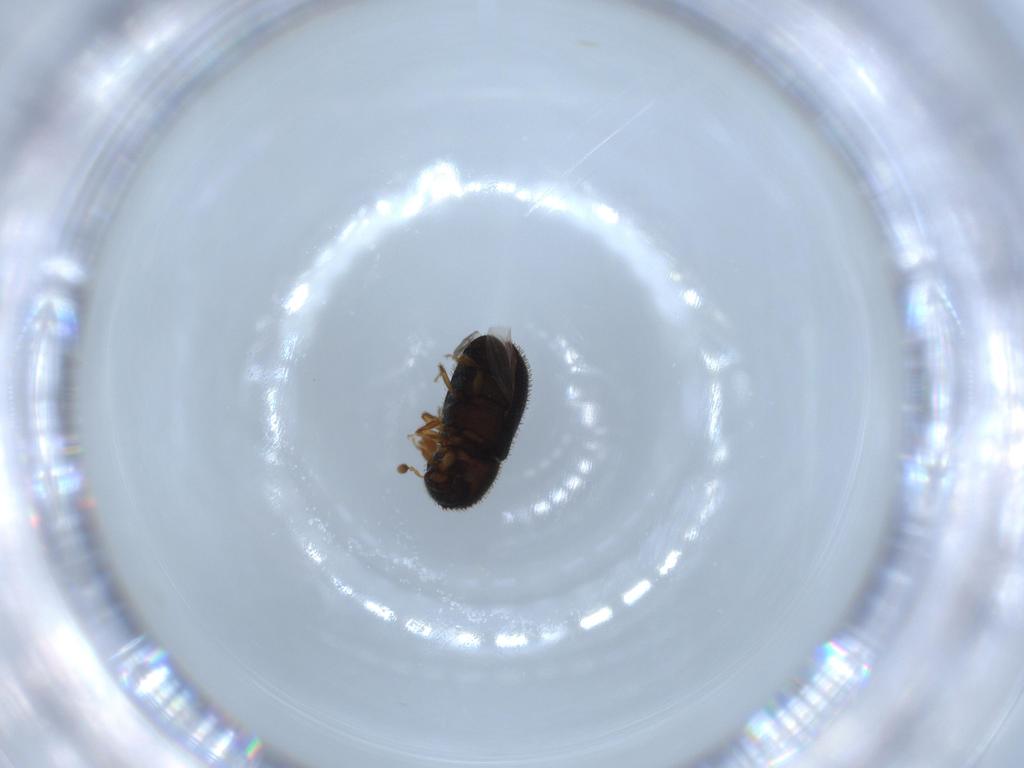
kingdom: Animalia
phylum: Arthropoda
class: Insecta
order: Coleoptera
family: Curculionidae
